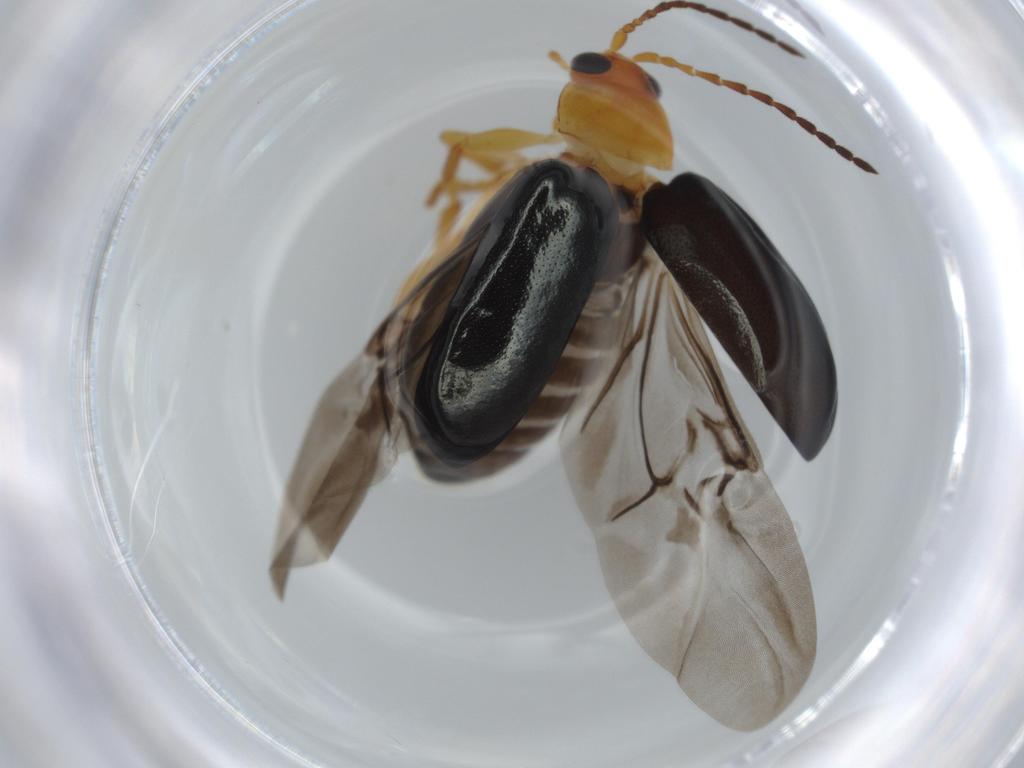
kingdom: Animalia
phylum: Arthropoda
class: Insecta
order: Coleoptera
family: Chrysomelidae
